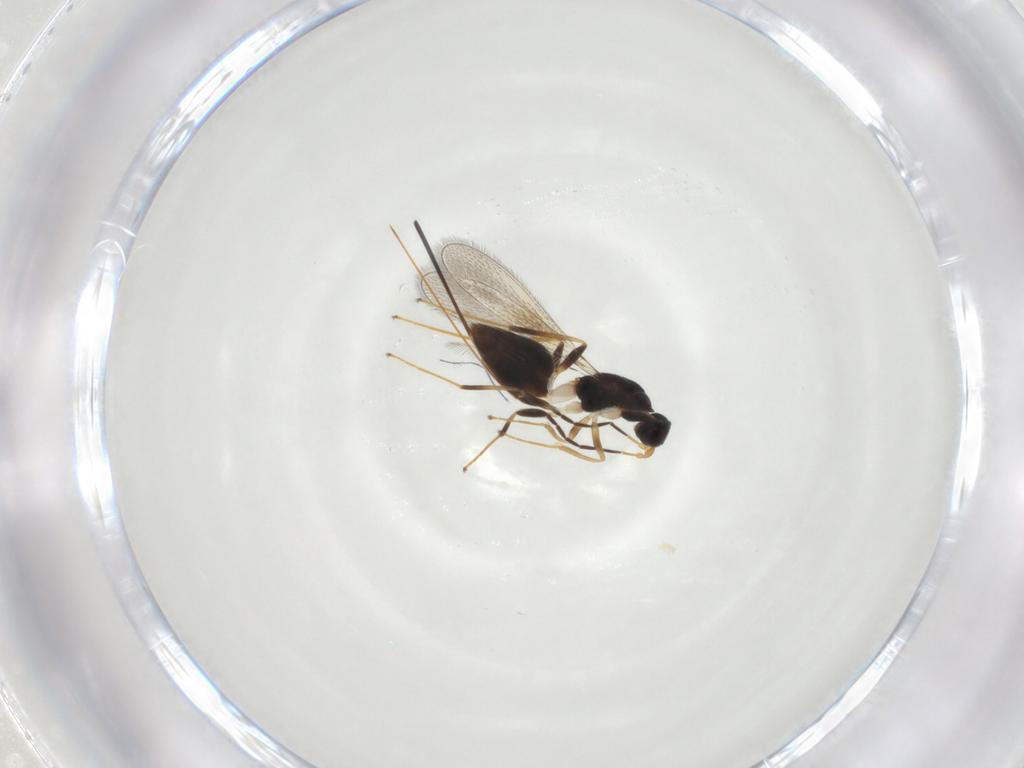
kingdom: Animalia
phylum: Arthropoda
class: Insecta
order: Hymenoptera
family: Mymaridae
